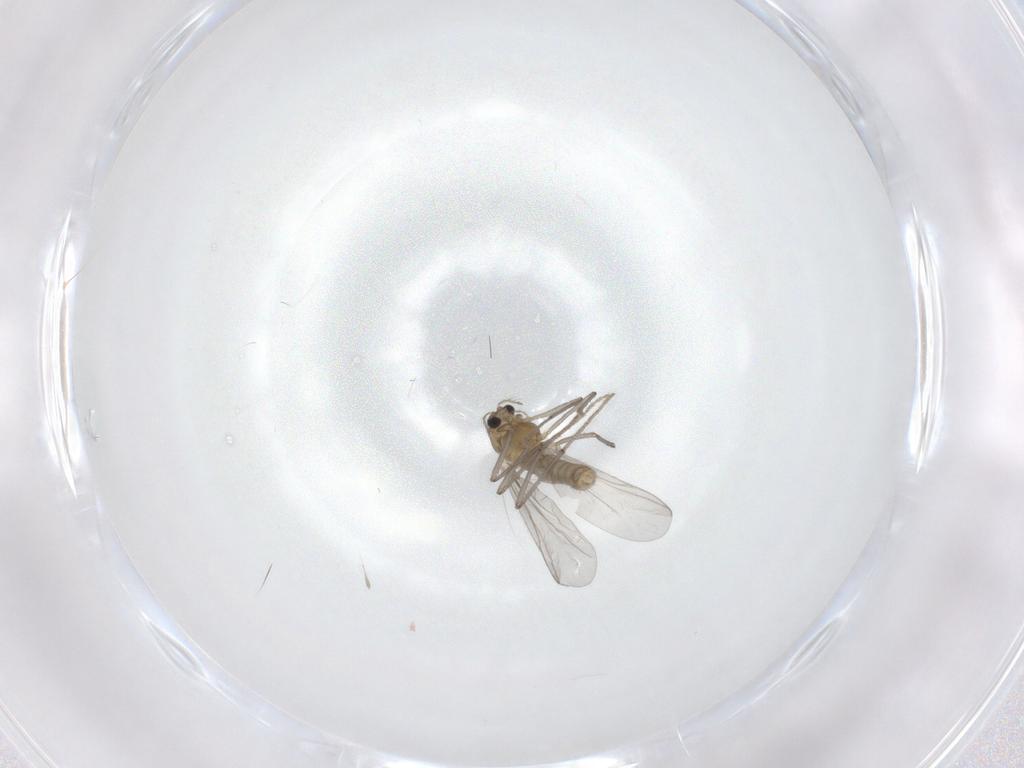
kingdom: Animalia
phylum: Arthropoda
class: Insecta
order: Diptera
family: Chironomidae
